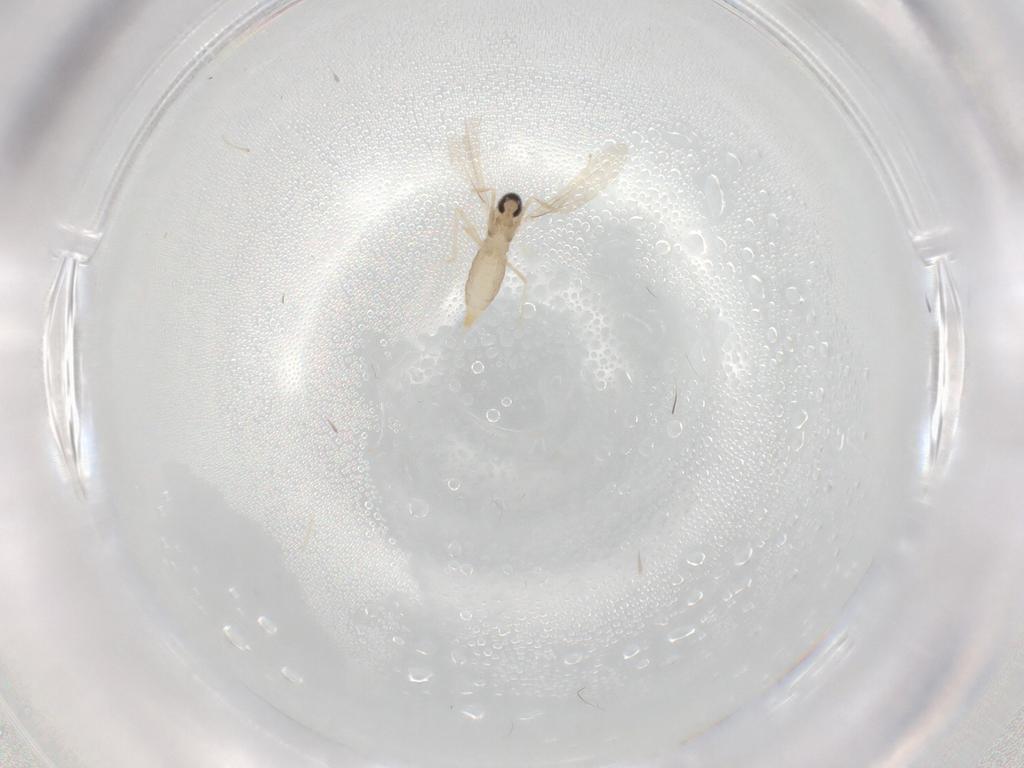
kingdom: Animalia
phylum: Arthropoda
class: Insecta
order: Diptera
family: Cecidomyiidae
